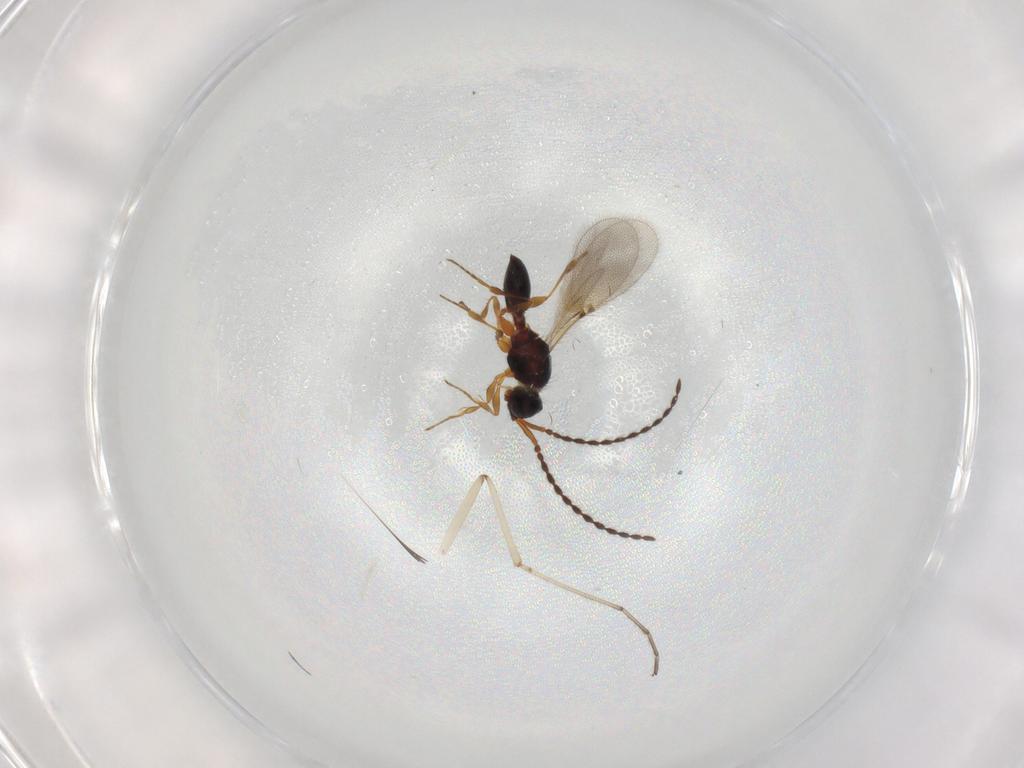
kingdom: Animalia
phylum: Arthropoda
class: Insecta
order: Hymenoptera
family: Diapriidae
